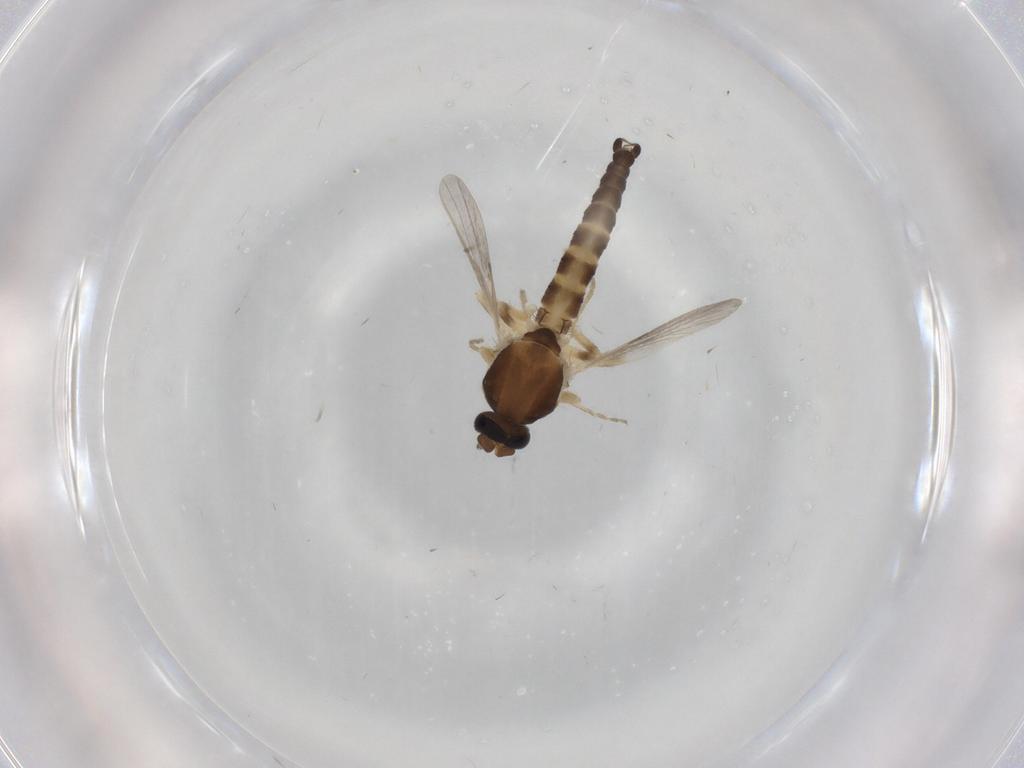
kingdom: Animalia
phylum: Arthropoda
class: Insecta
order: Diptera
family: Ceratopogonidae
